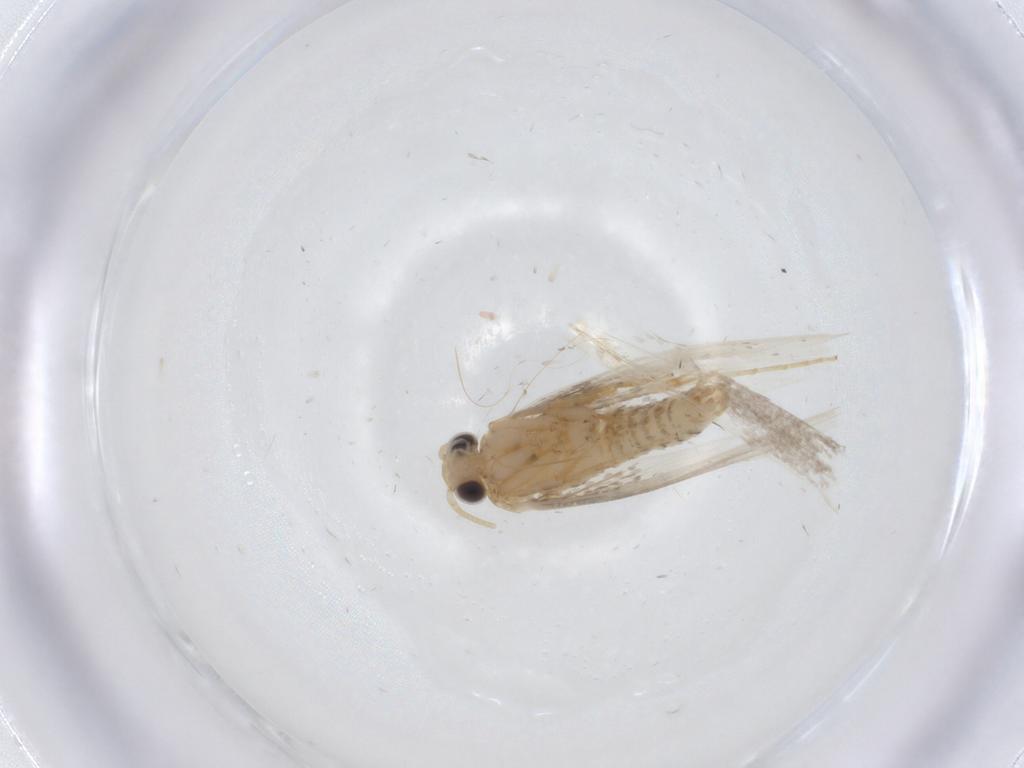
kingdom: Animalia
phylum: Arthropoda
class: Insecta
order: Lepidoptera
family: Tineidae
